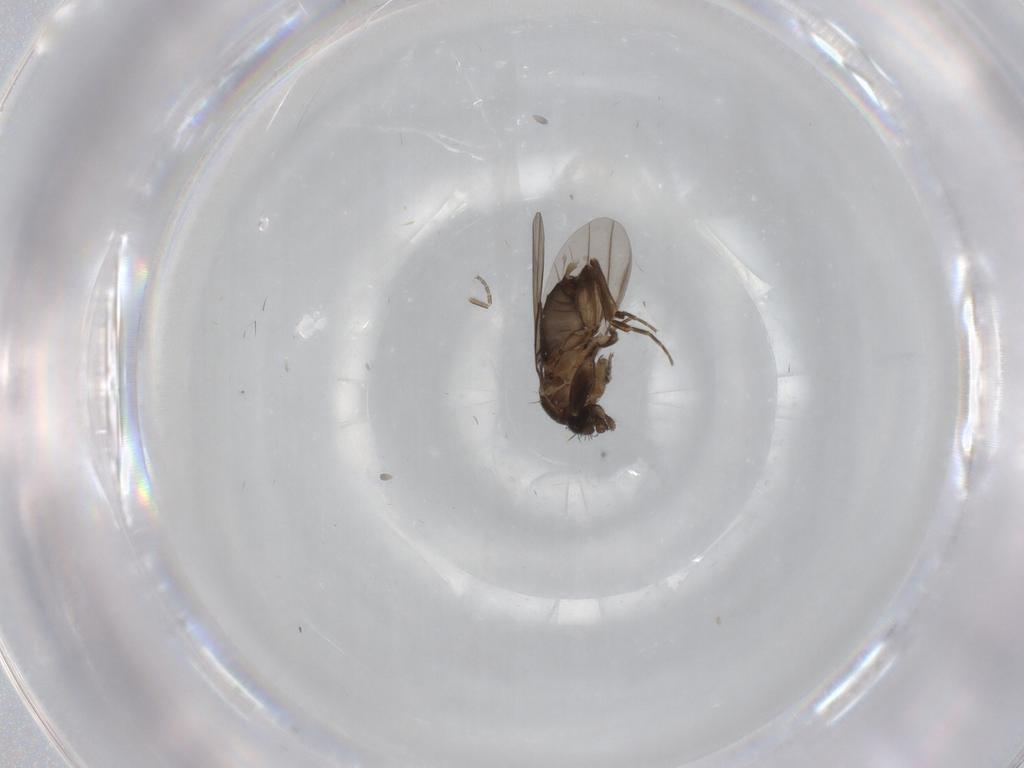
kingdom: Animalia
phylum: Arthropoda
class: Insecta
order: Diptera
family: Phoridae
